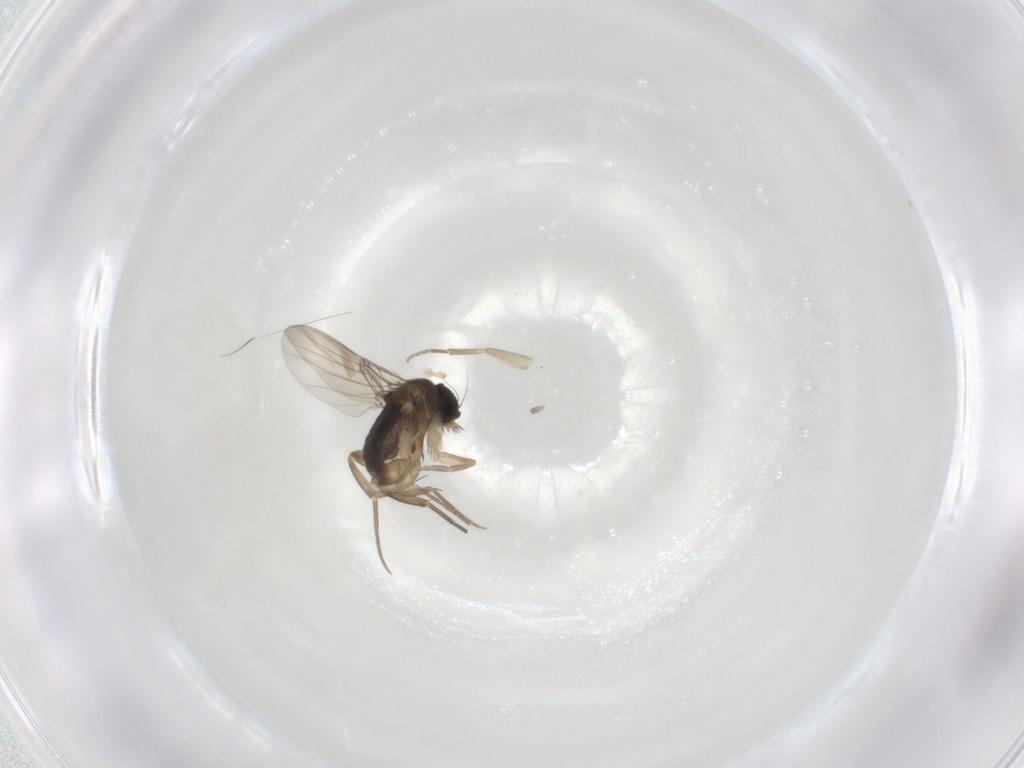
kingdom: Animalia
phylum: Arthropoda
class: Insecta
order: Diptera
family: Phoridae
